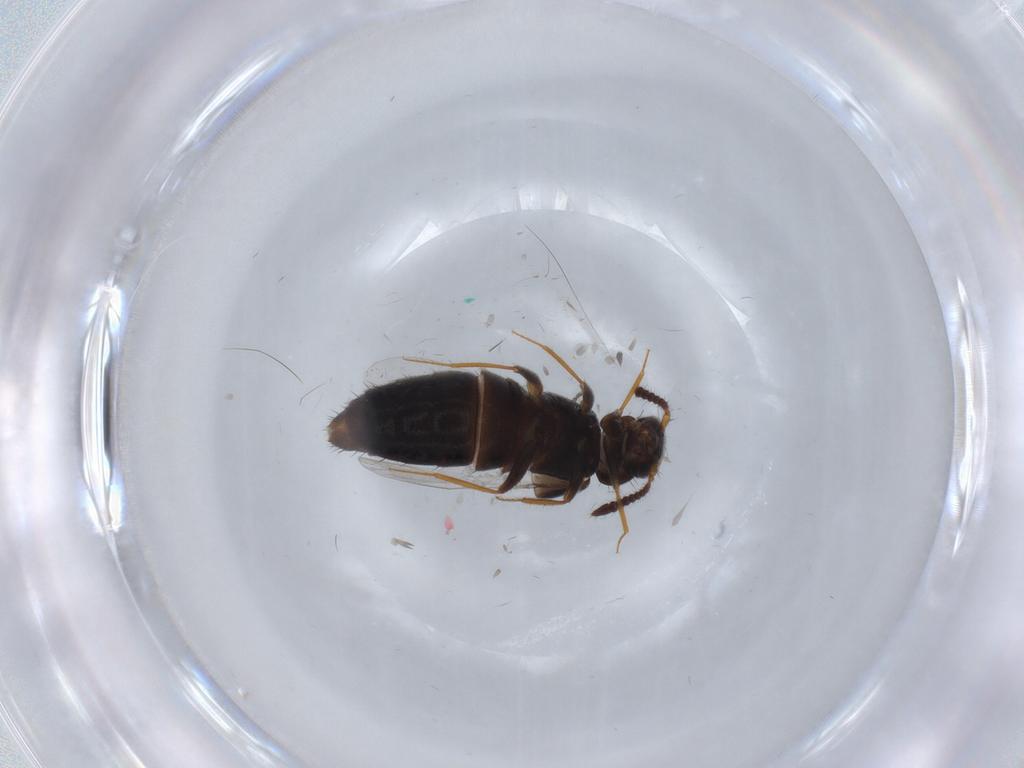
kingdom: Animalia
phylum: Arthropoda
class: Insecta
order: Coleoptera
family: Staphylinidae
